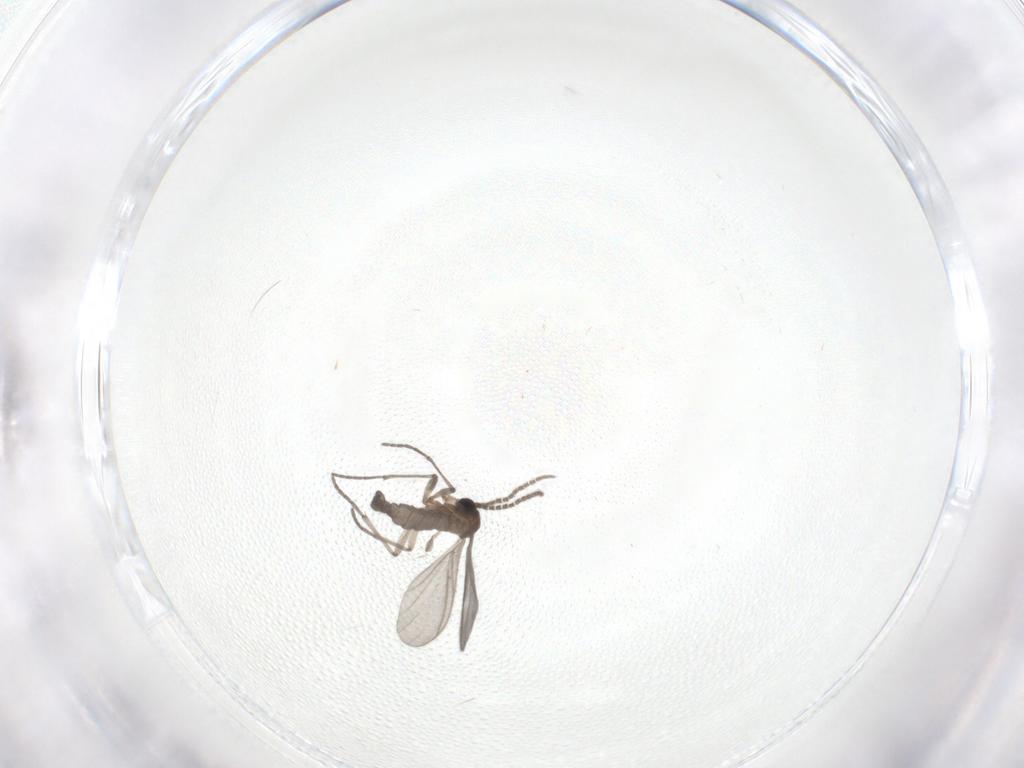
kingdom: Animalia
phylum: Arthropoda
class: Insecta
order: Diptera
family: Sciaridae
